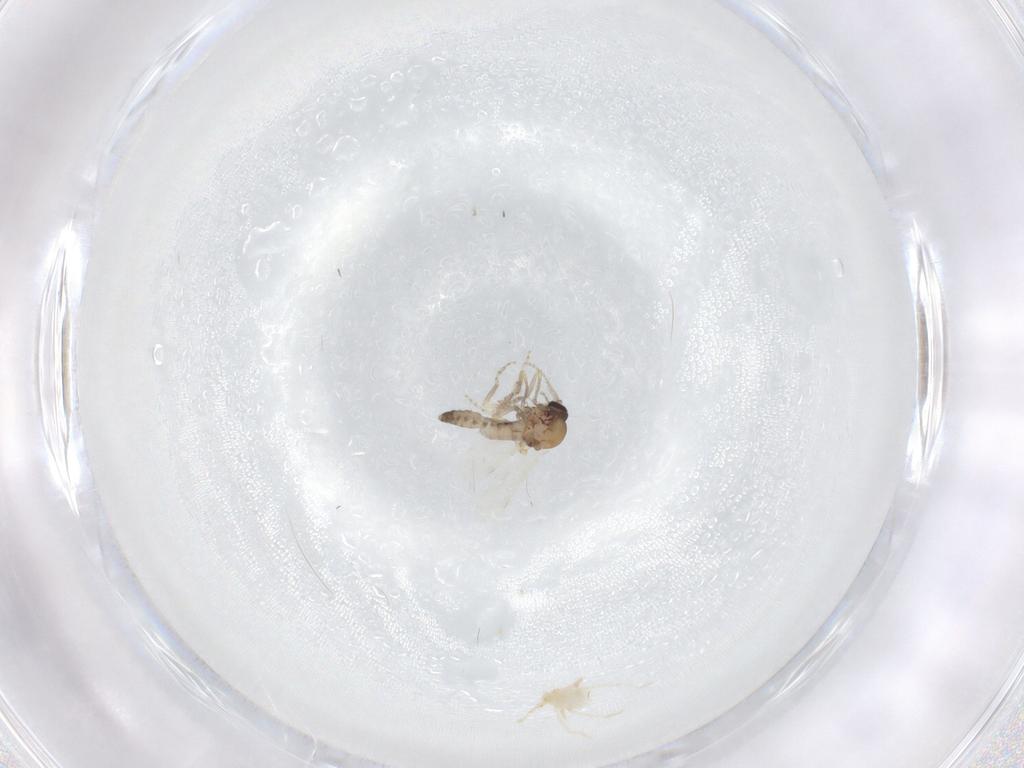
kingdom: Animalia
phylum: Arthropoda
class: Insecta
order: Diptera
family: Ceratopogonidae
